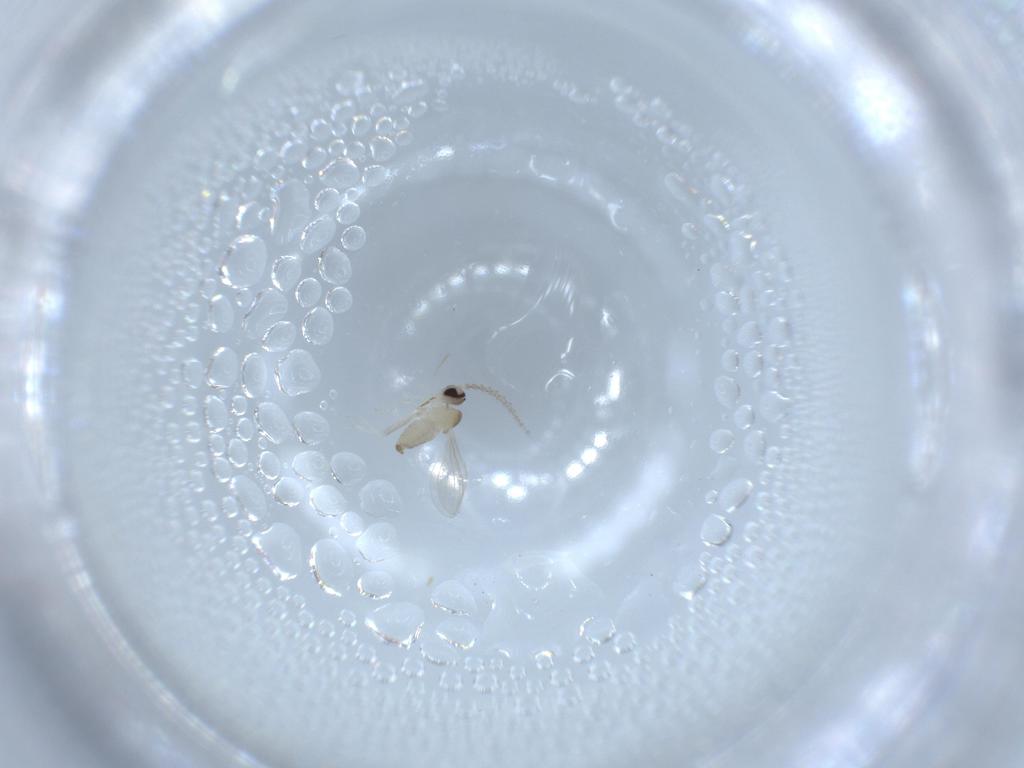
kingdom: Animalia
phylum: Arthropoda
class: Insecta
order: Diptera
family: Cecidomyiidae
